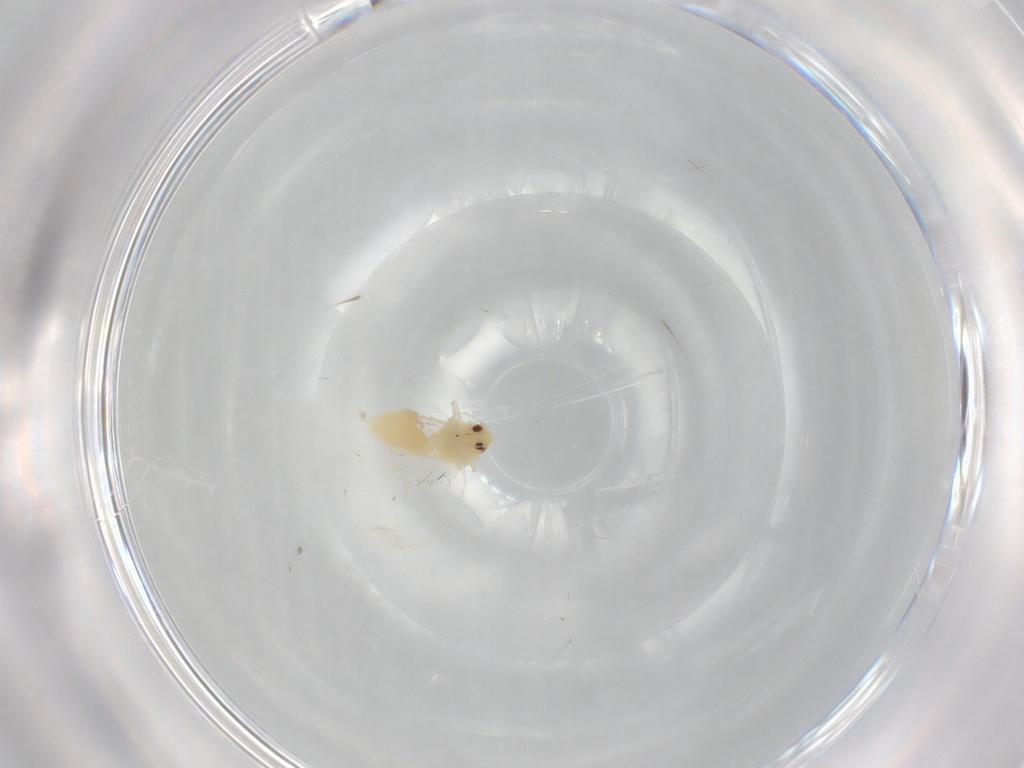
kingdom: Animalia
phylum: Arthropoda
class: Insecta
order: Hemiptera
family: Aleyrodidae
